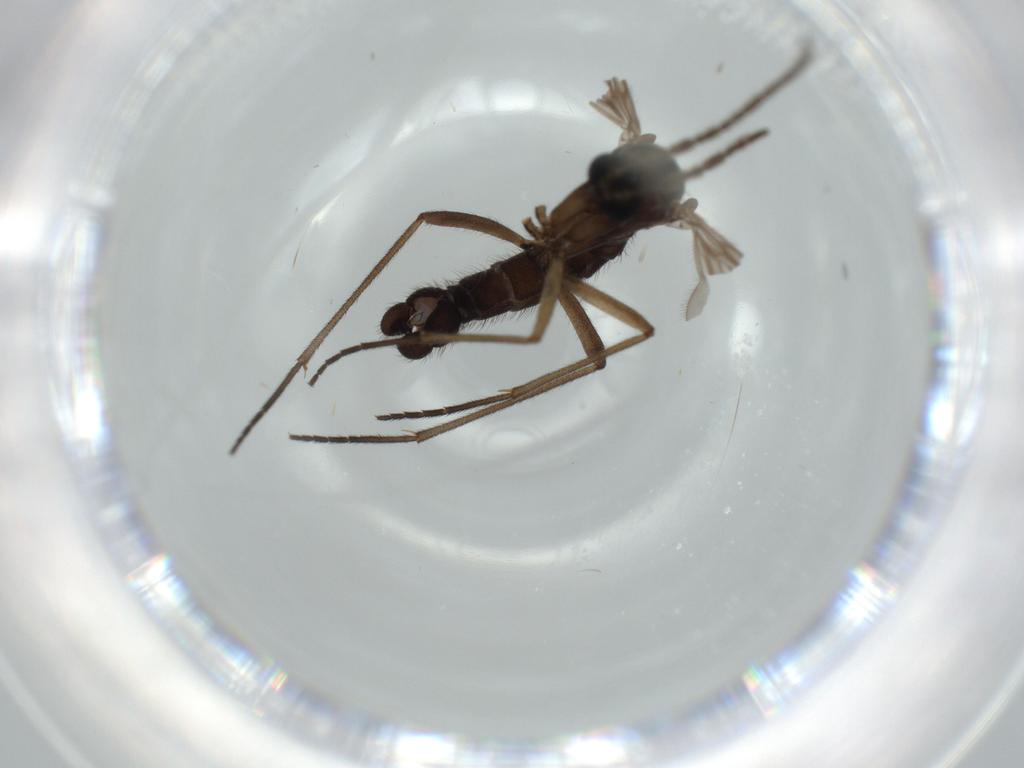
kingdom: Animalia
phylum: Arthropoda
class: Insecta
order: Diptera
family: Sciaridae
